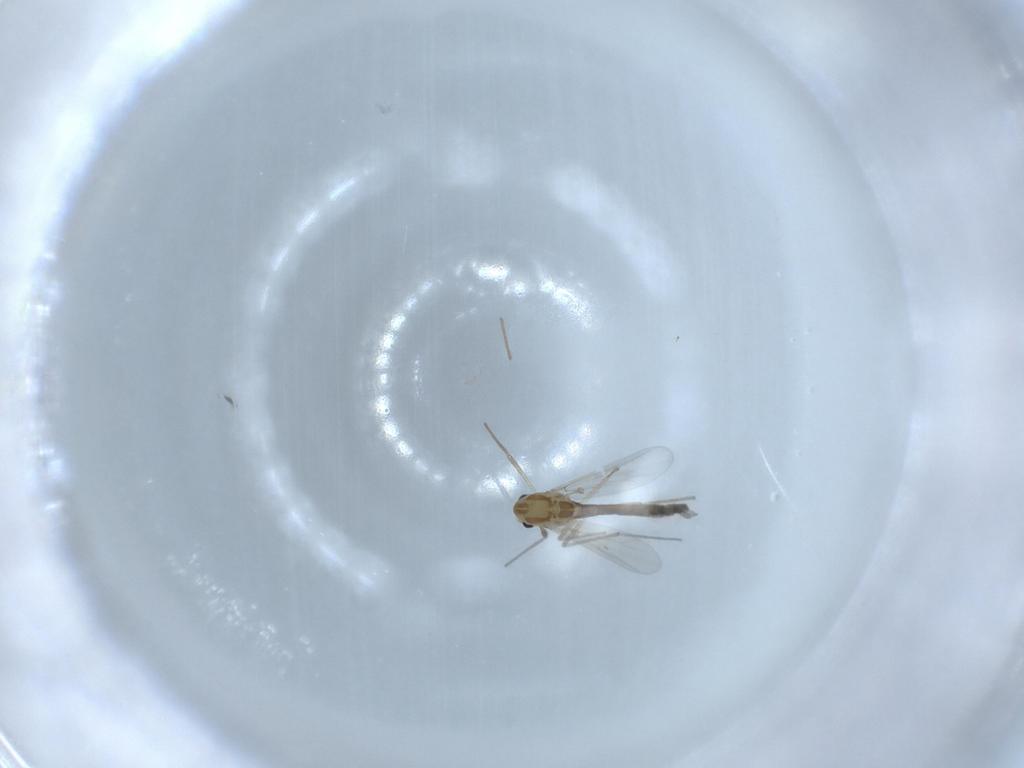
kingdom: Animalia
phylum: Arthropoda
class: Insecta
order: Diptera
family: Chironomidae
